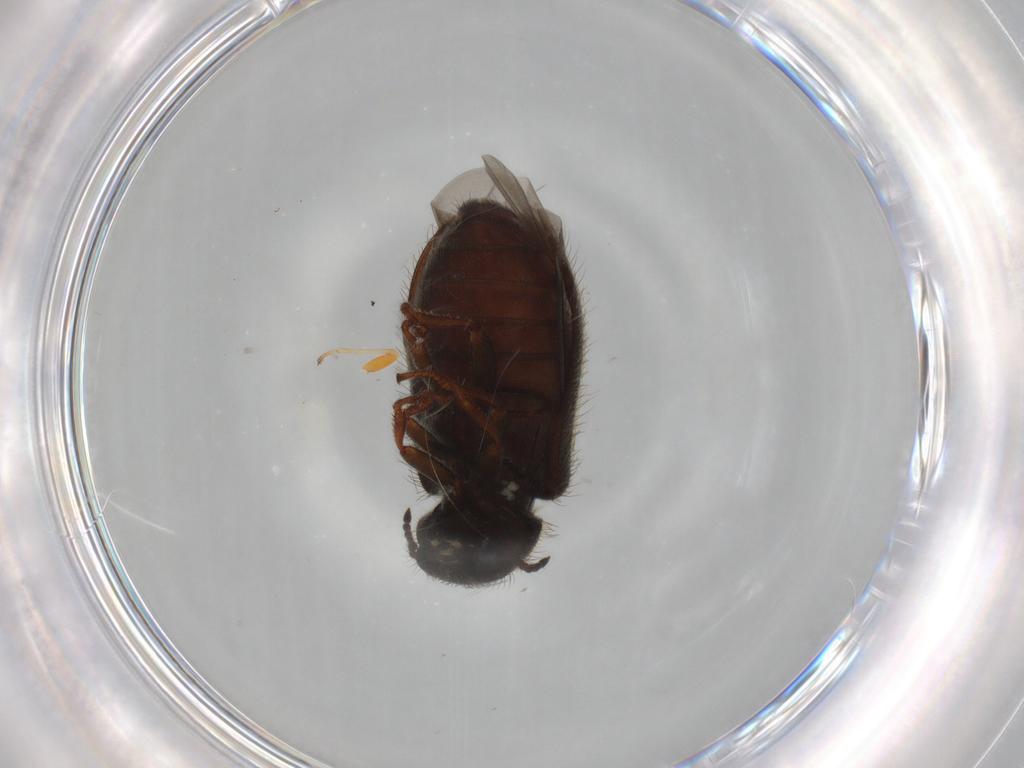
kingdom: Animalia
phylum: Arthropoda
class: Insecta
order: Coleoptera
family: Melyridae
